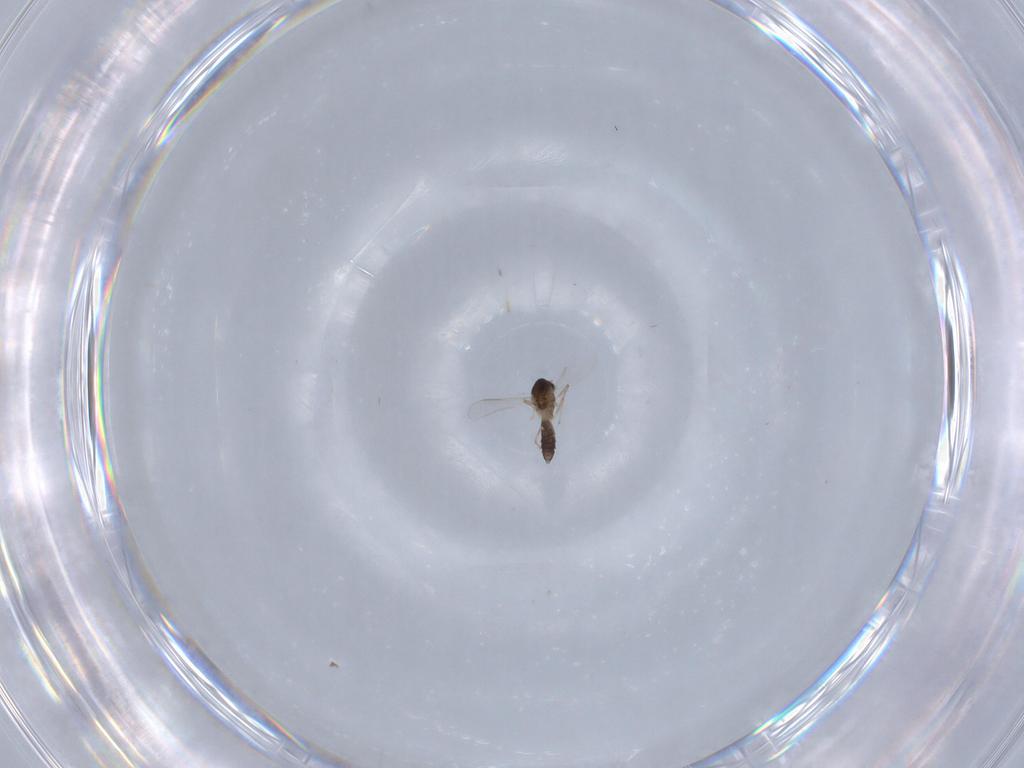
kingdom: Animalia
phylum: Arthropoda
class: Insecta
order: Diptera
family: Chironomidae
